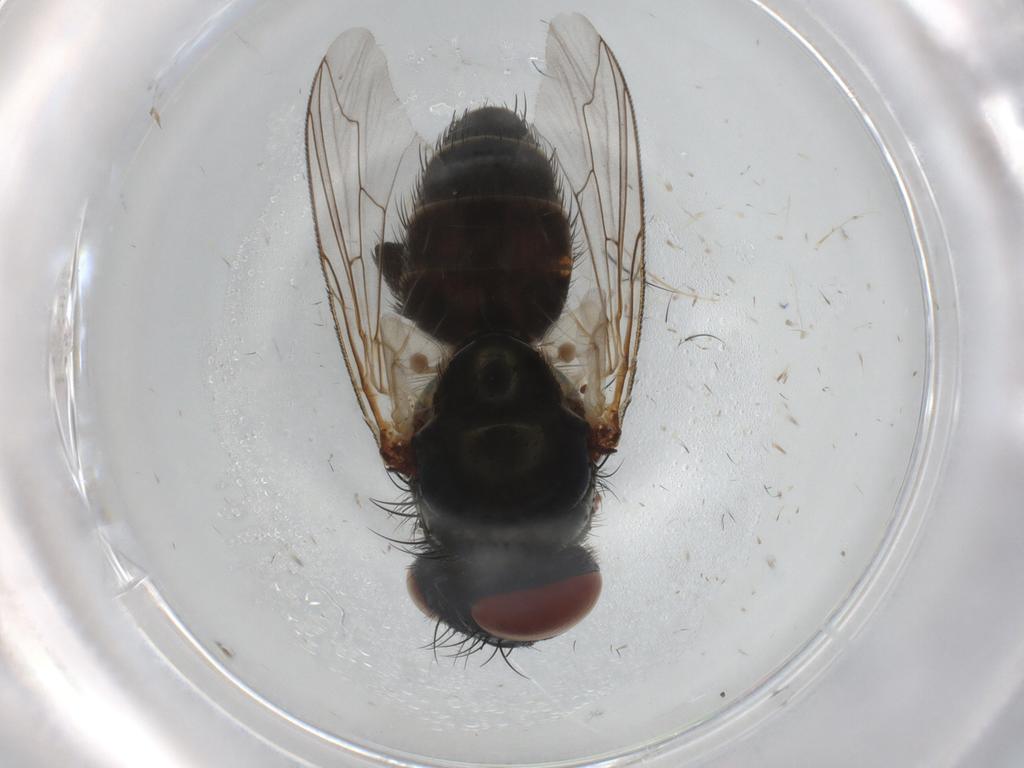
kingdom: Animalia
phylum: Arthropoda
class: Insecta
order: Diptera
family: Sarcophagidae
